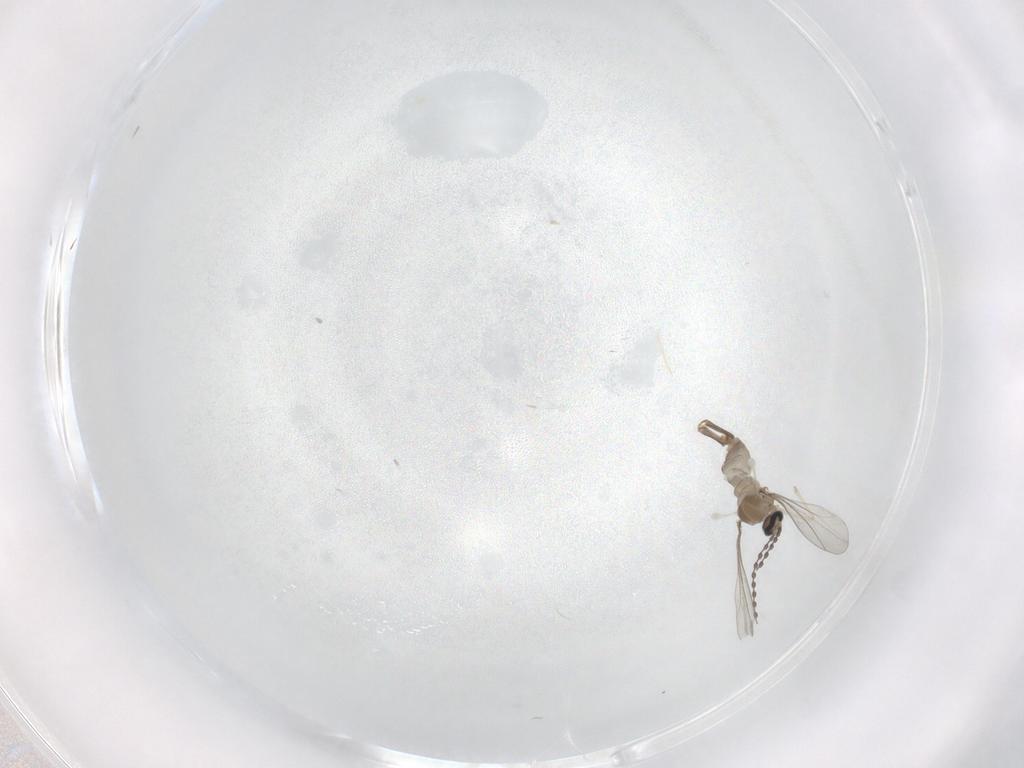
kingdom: Animalia
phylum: Arthropoda
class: Insecta
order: Diptera
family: Cecidomyiidae
